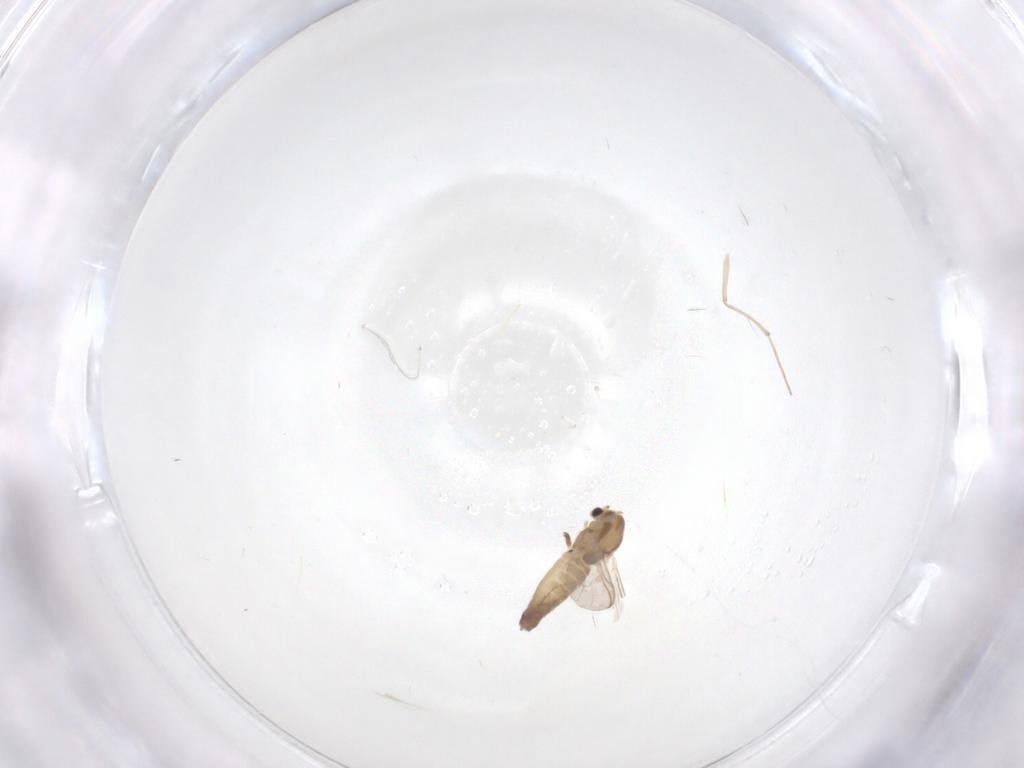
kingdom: Animalia
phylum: Arthropoda
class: Insecta
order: Diptera
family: Chironomidae
